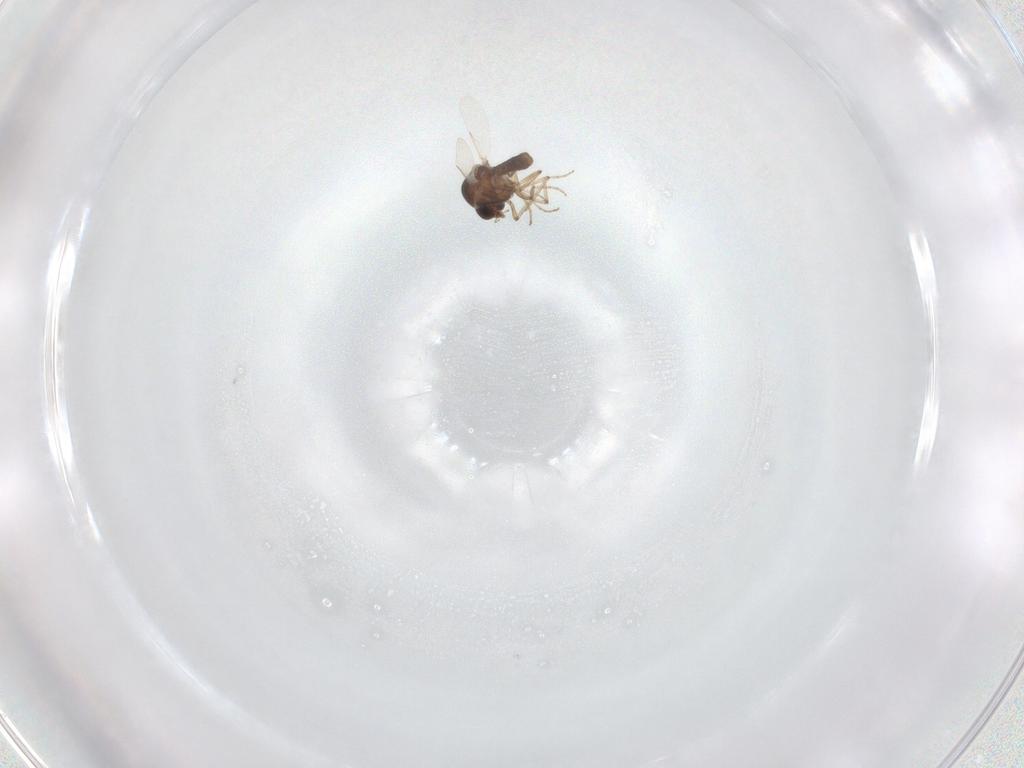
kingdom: Animalia
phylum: Arthropoda
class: Insecta
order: Diptera
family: Ceratopogonidae
